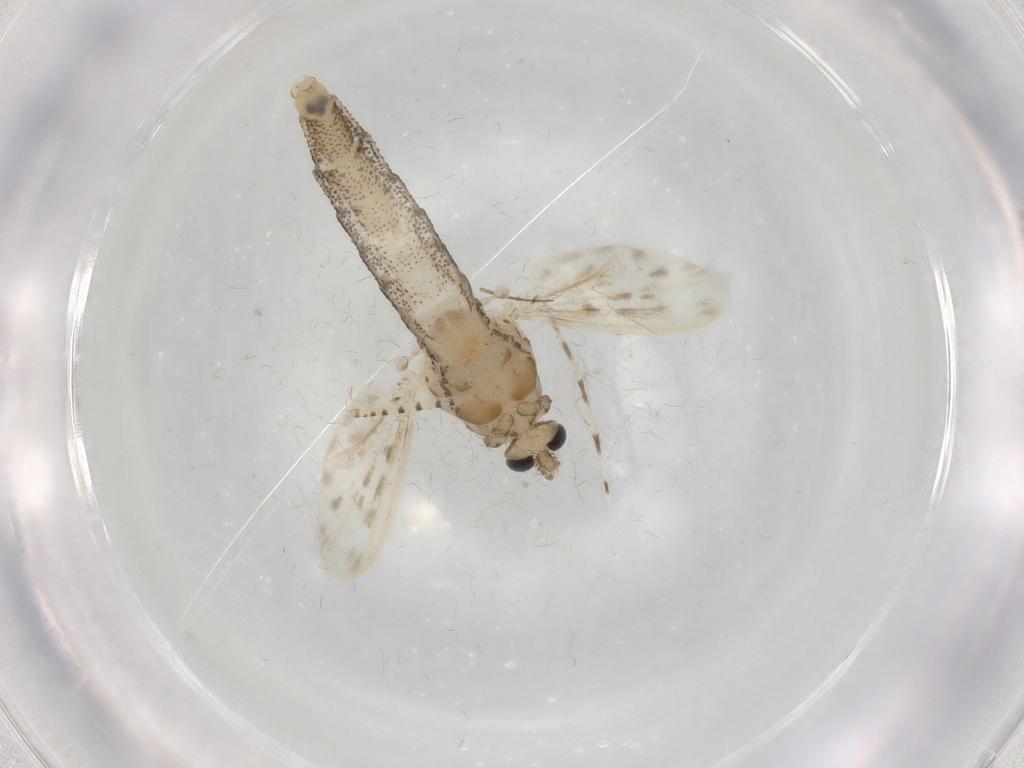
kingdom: Animalia
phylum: Arthropoda
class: Insecta
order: Diptera
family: Chaoboridae
